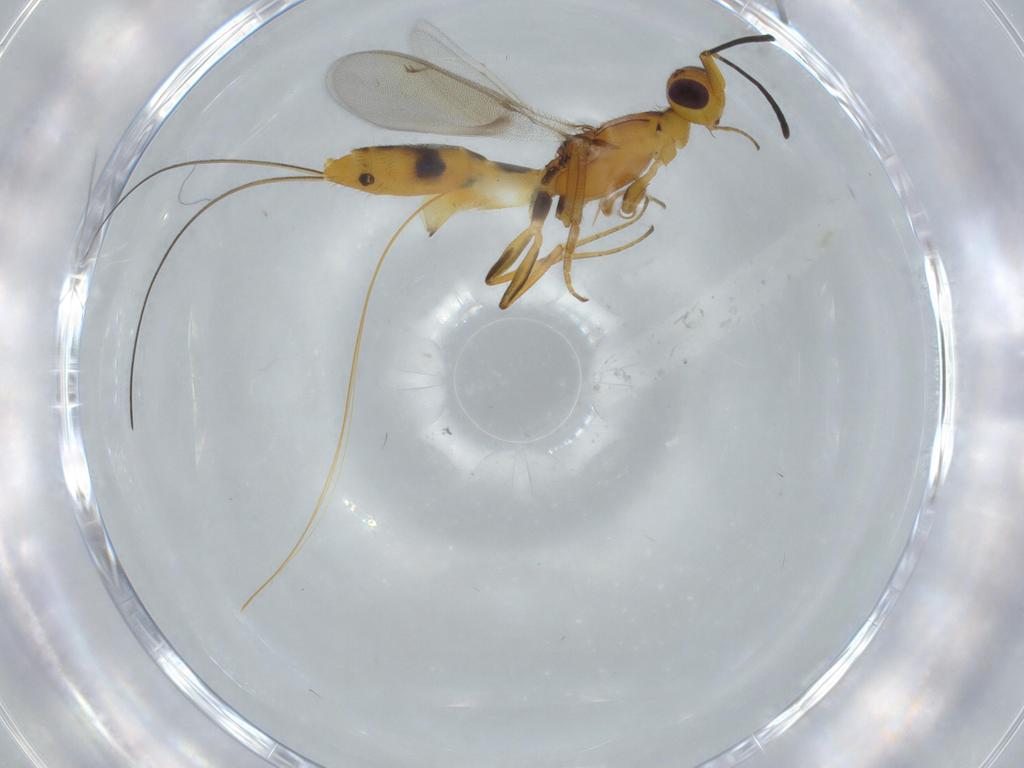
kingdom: Animalia
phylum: Arthropoda
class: Insecta
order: Hymenoptera
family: Eupelmidae
